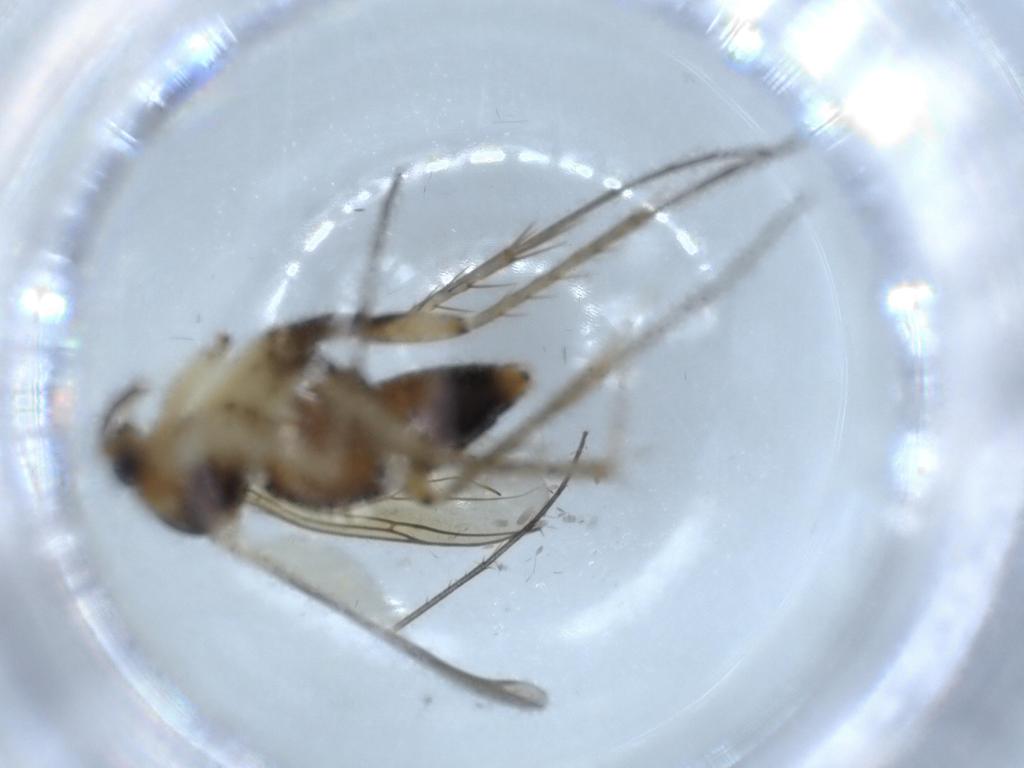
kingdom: Animalia
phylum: Arthropoda
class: Insecta
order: Diptera
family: Mycetophilidae
